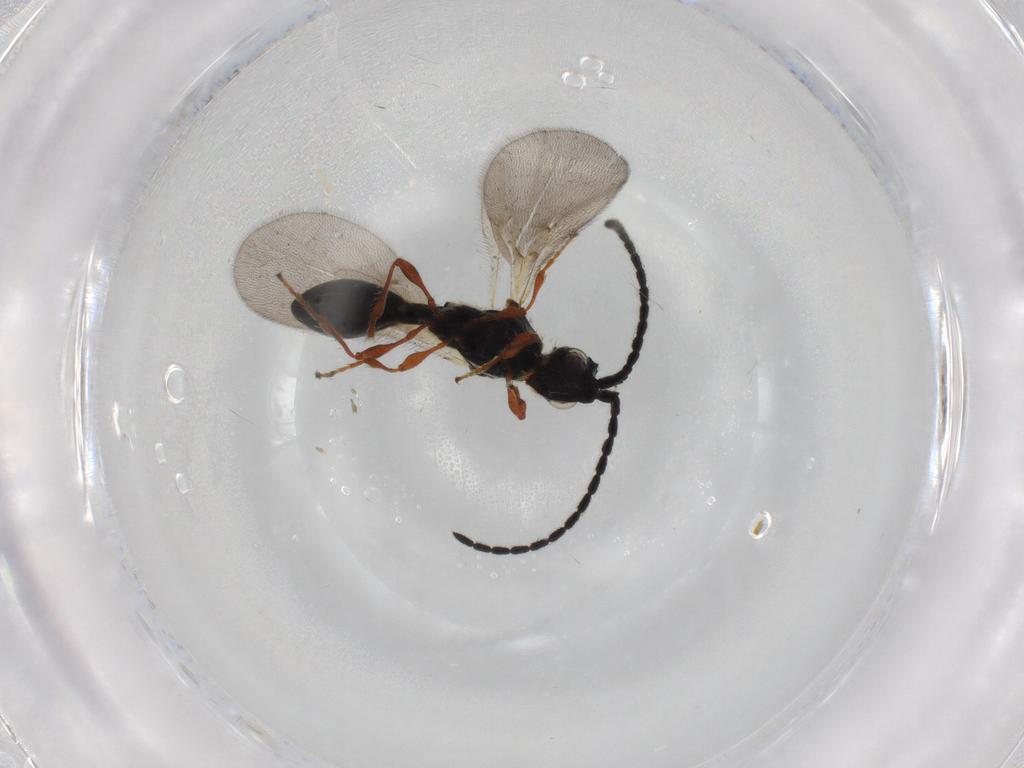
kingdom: Animalia
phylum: Arthropoda
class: Insecta
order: Hymenoptera
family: Diapriidae
